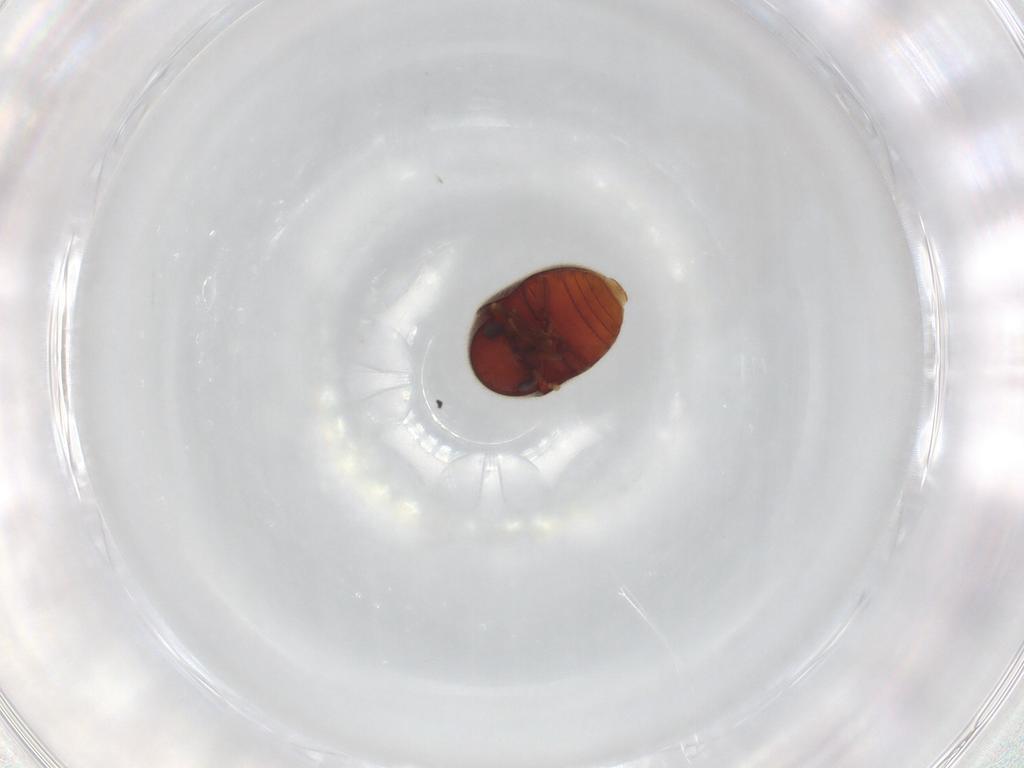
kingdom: Animalia
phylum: Arthropoda
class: Insecta
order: Coleoptera
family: Ptinidae
